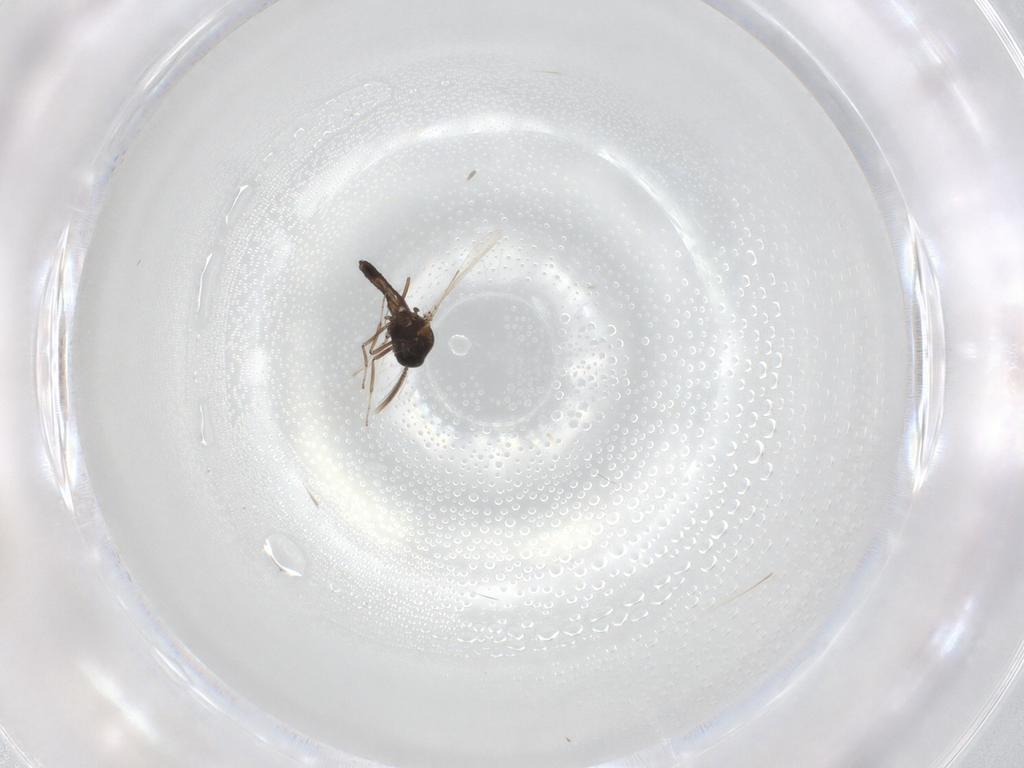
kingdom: Animalia
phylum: Arthropoda
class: Insecta
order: Diptera
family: Ceratopogonidae
